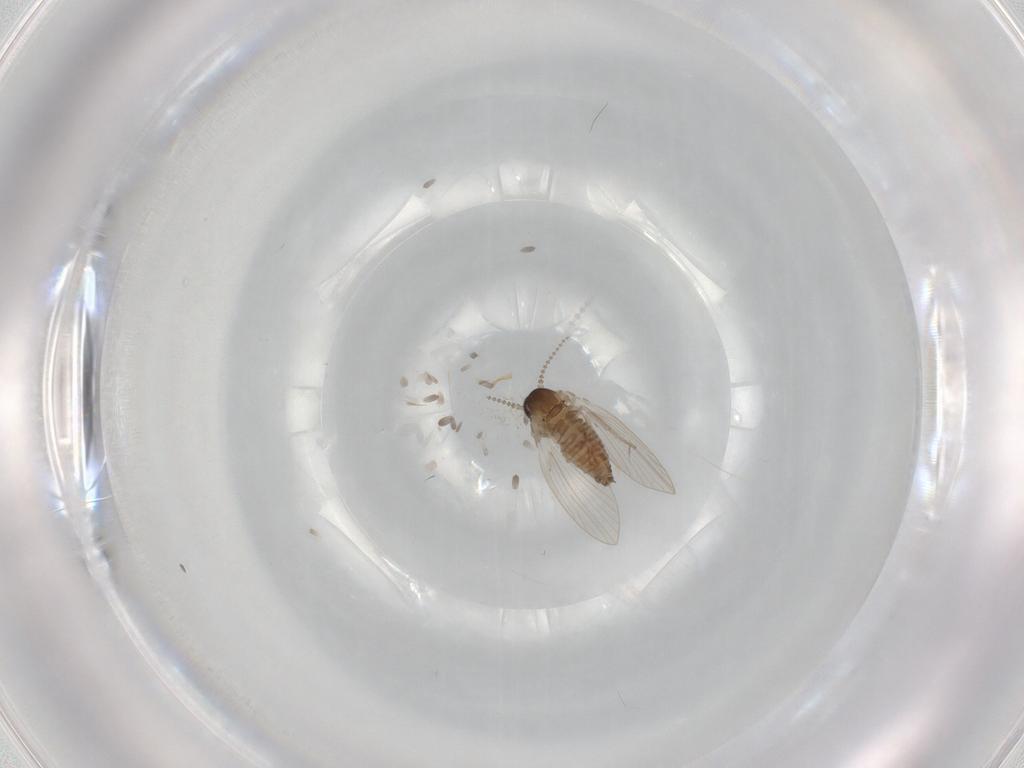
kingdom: Animalia
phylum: Arthropoda
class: Insecta
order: Diptera
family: Psychodidae
